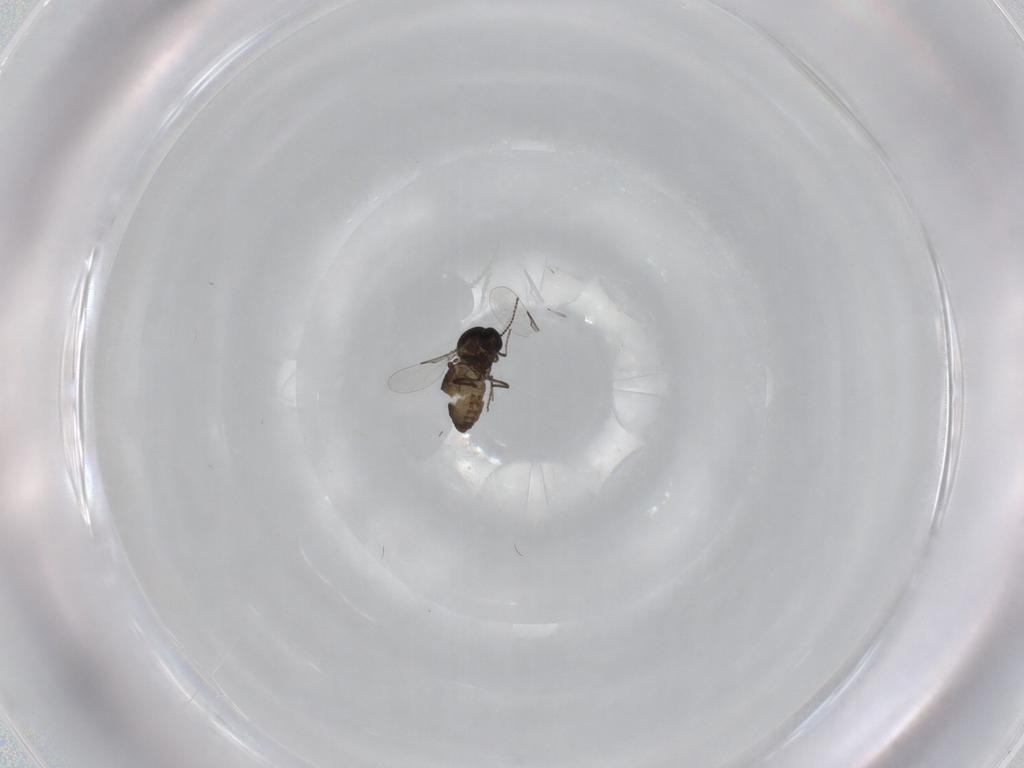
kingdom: Animalia
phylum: Arthropoda
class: Insecta
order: Diptera
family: Ceratopogonidae
